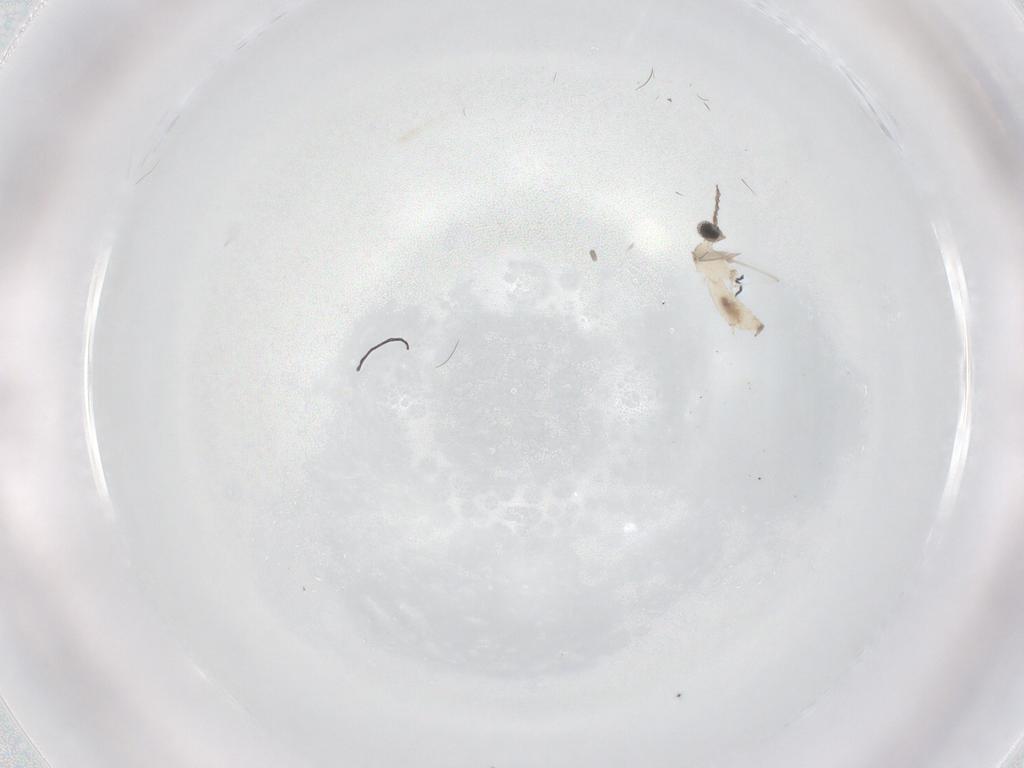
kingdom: Animalia
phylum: Arthropoda
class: Insecta
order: Diptera
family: Cecidomyiidae
